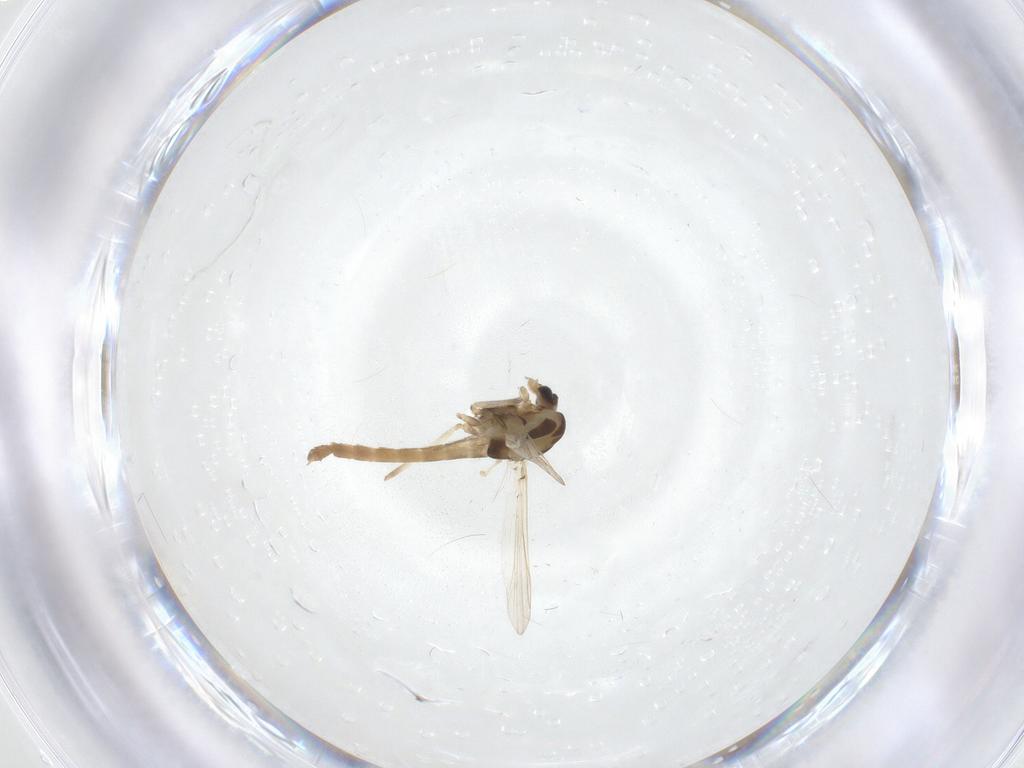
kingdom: Animalia
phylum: Arthropoda
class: Insecta
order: Diptera
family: Chironomidae
